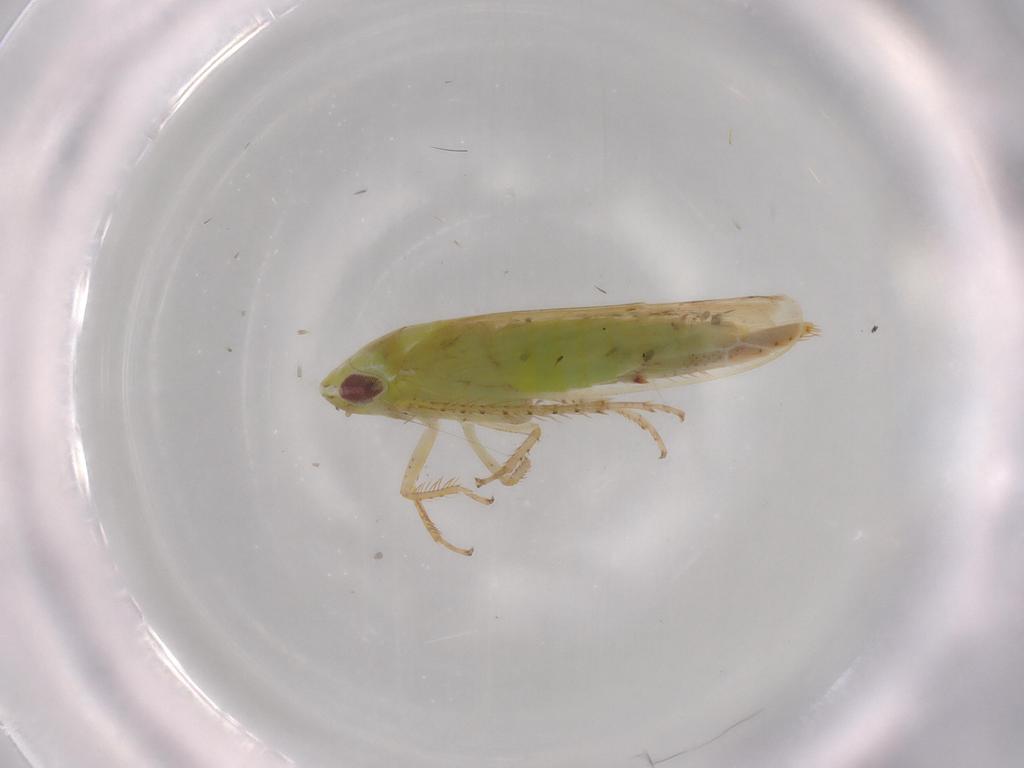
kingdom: Animalia
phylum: Arthropoda
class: Insecta
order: Hemiptera
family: Cicadellidae
